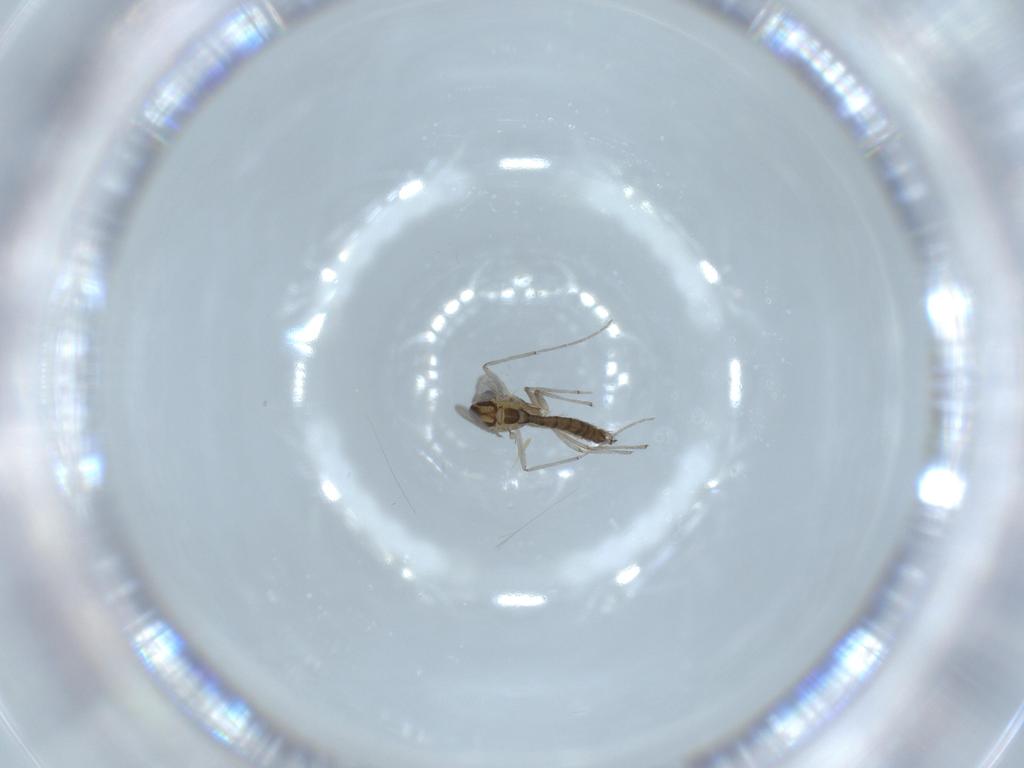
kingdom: Animalia
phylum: Arthropoda
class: Insecta
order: Diptera
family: Chironomidae
